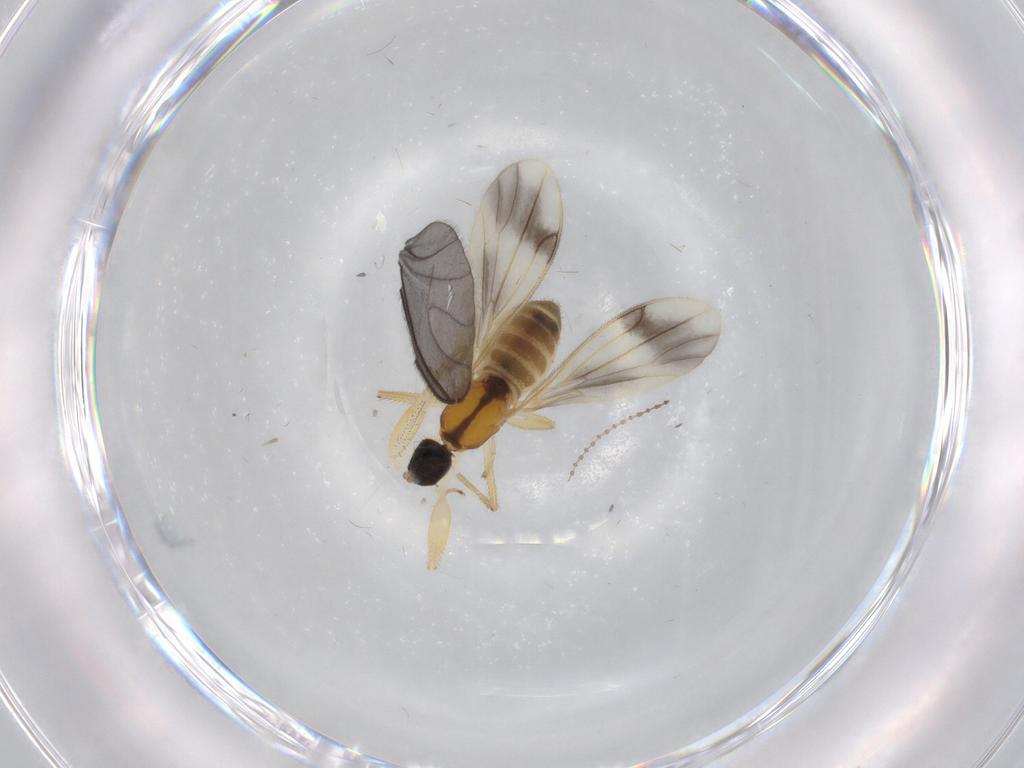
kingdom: Animalia
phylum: Arthropoda
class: Insecta
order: Diptera
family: Empididae
